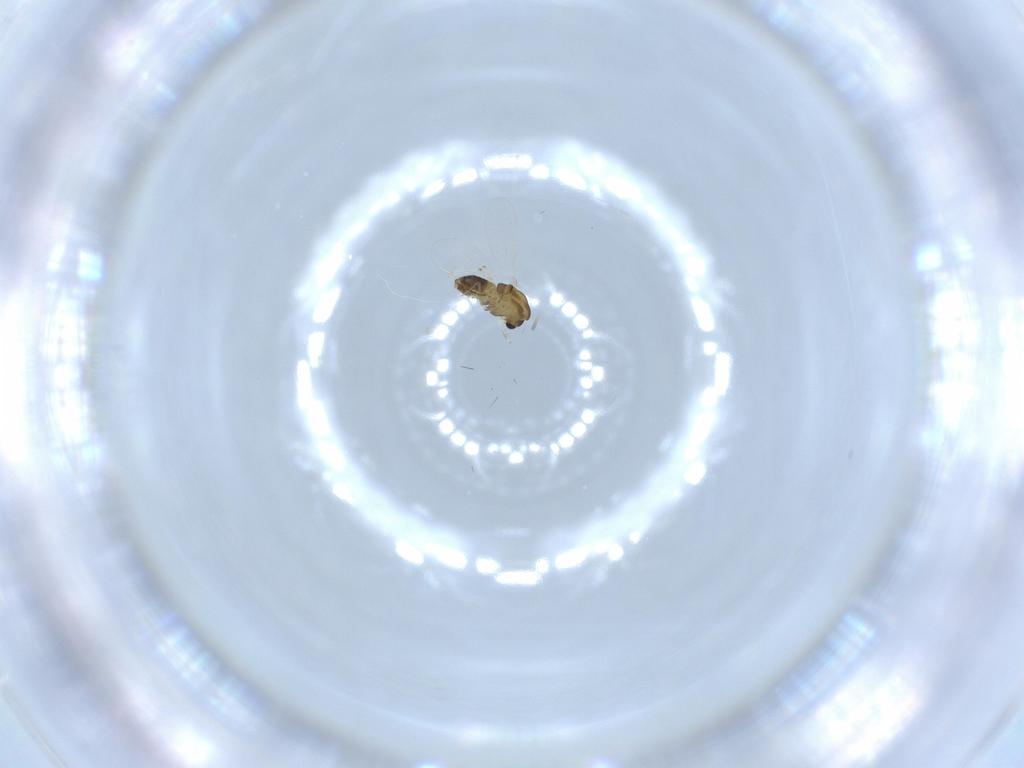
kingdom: Animalia
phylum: Arthropoda
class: Insecta
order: Diptera
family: Chironomidae
